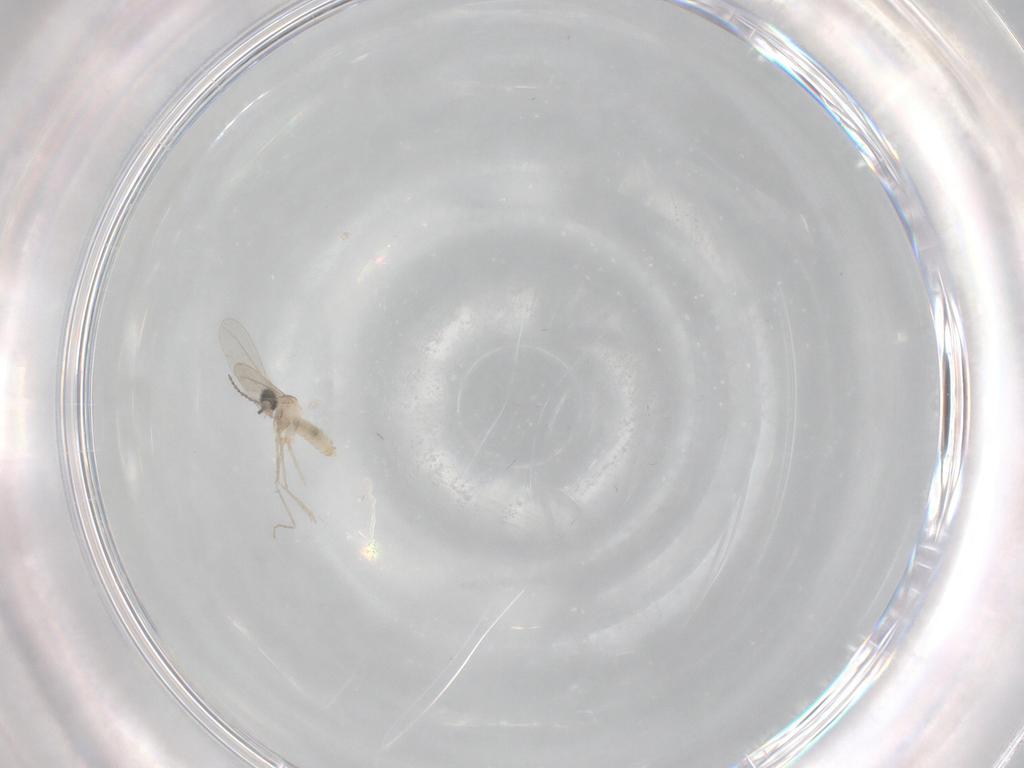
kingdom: Animalia
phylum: Arthropoda
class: Insecta
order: Diptera
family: Cecidomyiidae
